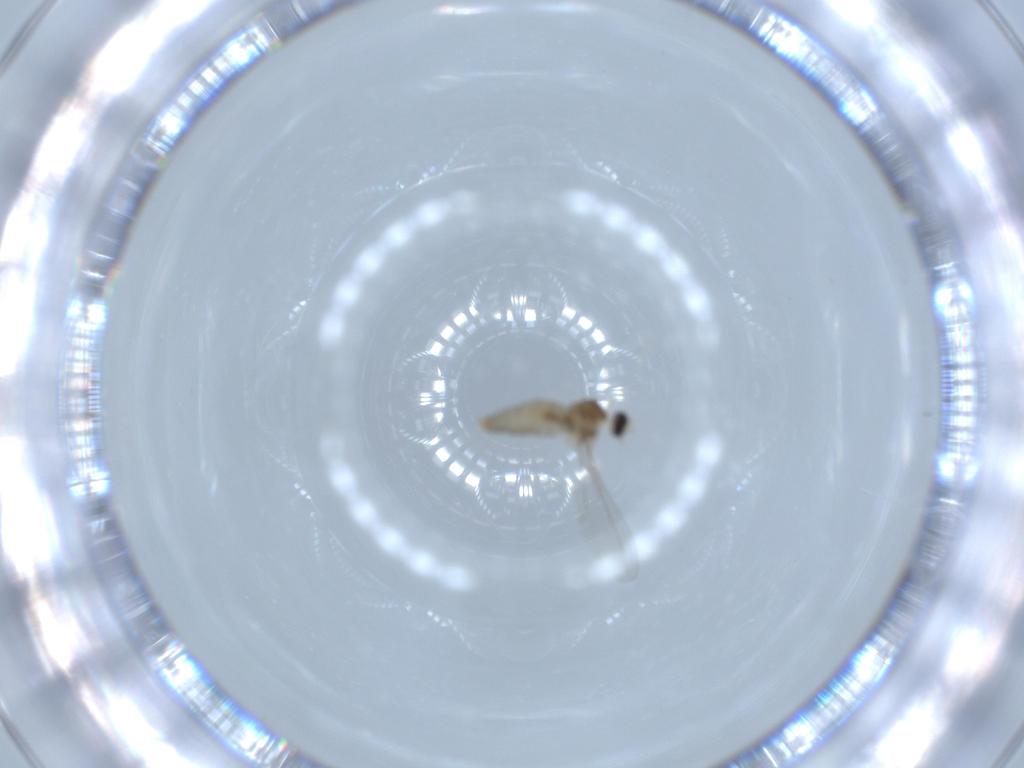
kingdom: Animalia
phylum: Arthropoda
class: Insecta
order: Diptera
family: Cecidomyiidae
